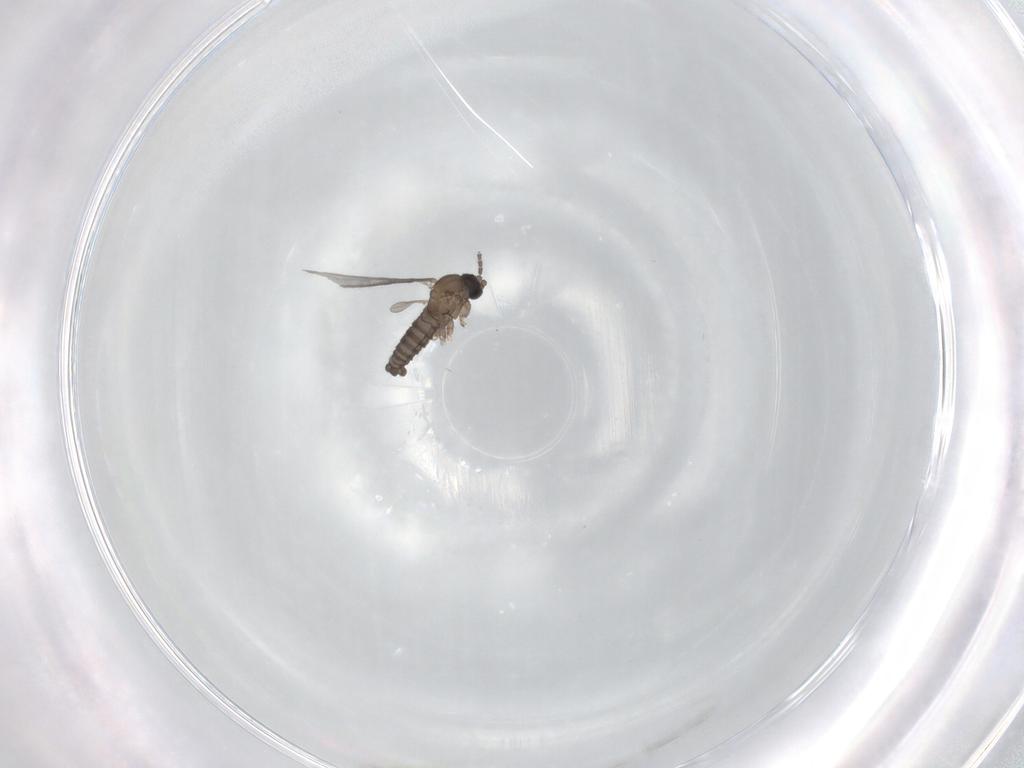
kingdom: Animalia
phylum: Arthropoda
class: Insecta
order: Diptera
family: Sciaridae
